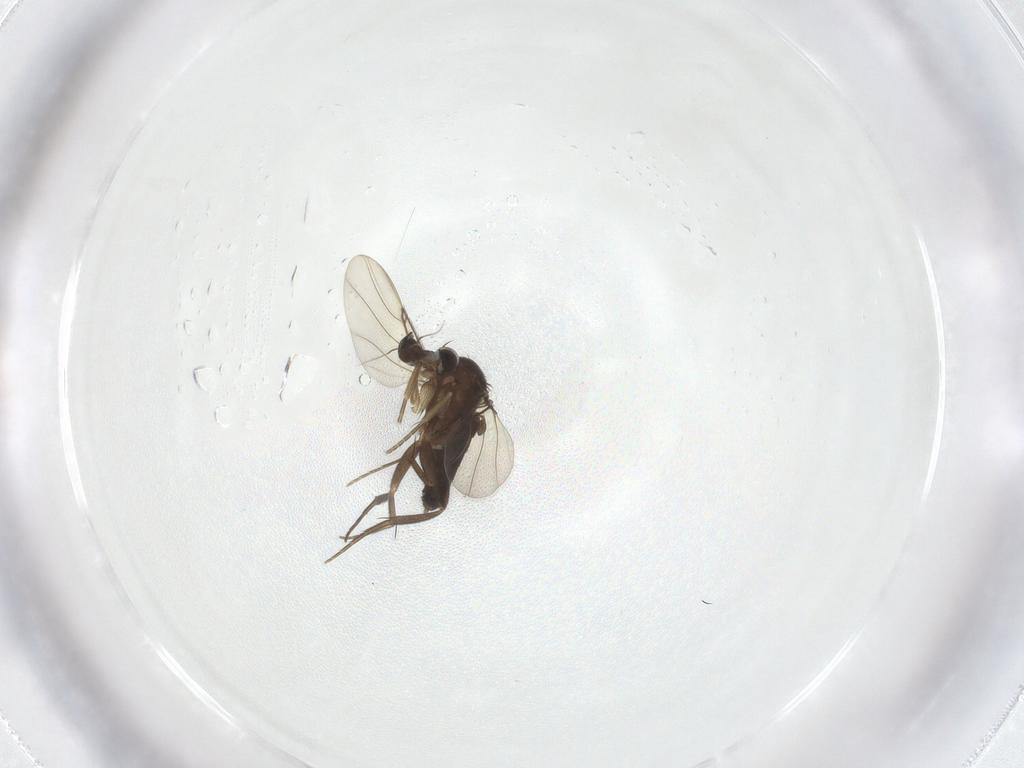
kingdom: Animalia
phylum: Arthropoda
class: Insecta
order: Diptera
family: Phoridae
